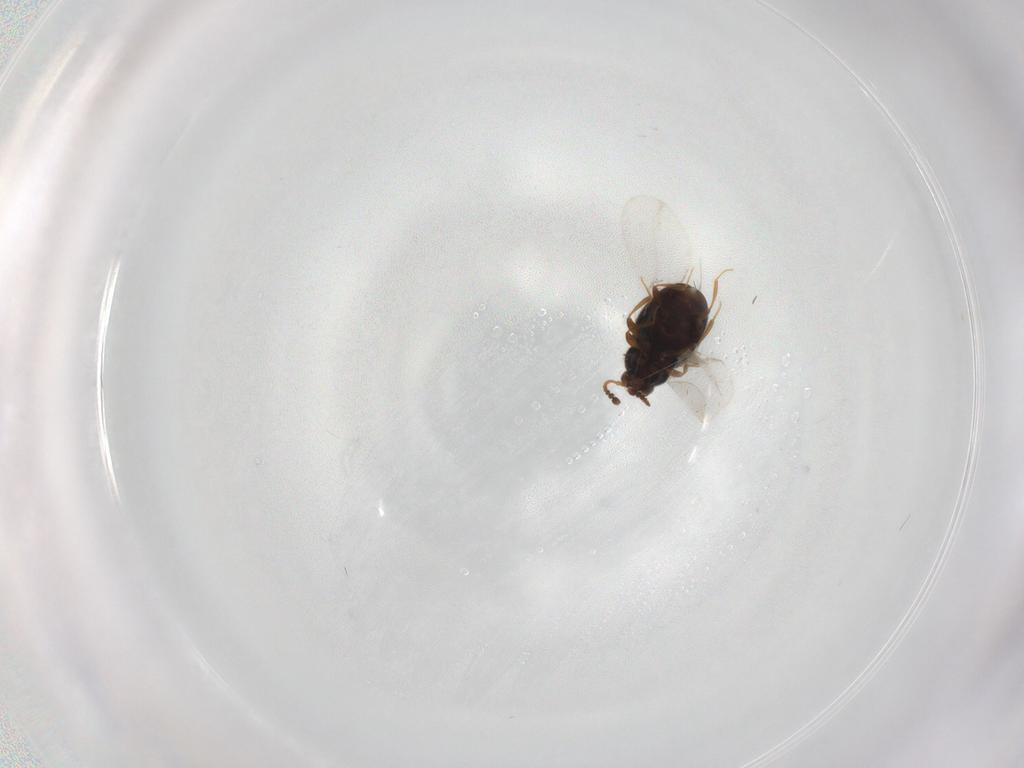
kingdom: Animalia
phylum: Arthropoda
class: Insecta
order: Coleoptera
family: Staphylinidae
